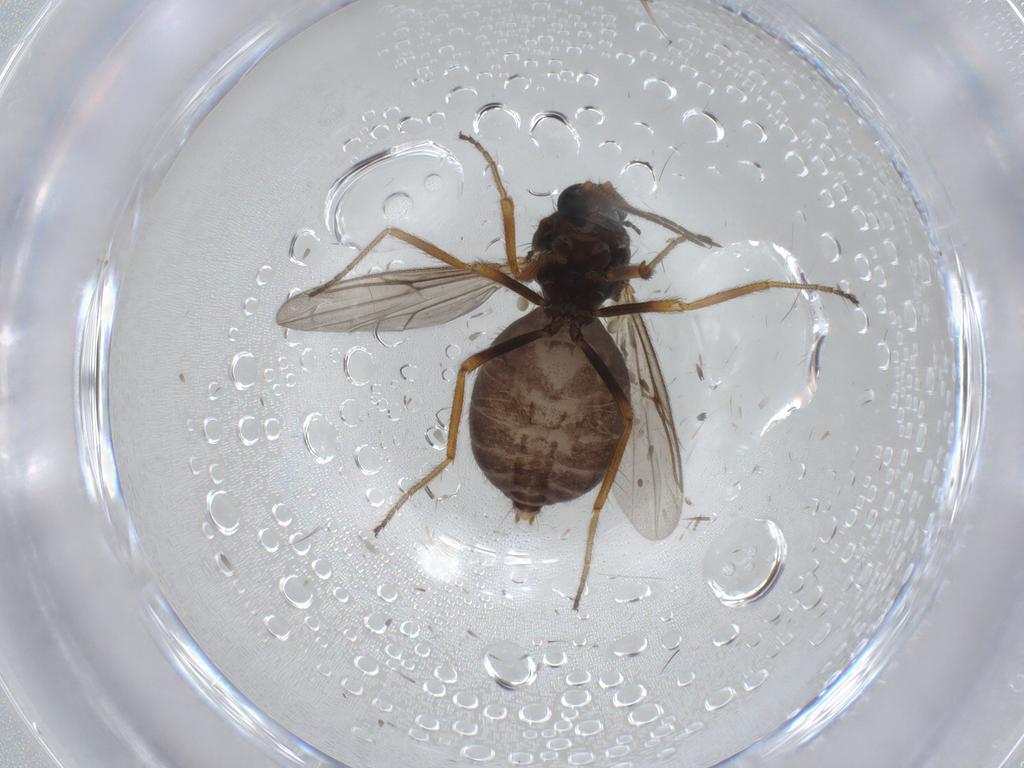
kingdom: Animalia
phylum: Arthropoda
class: Insecta
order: Diptera
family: Ceratopogonidae
